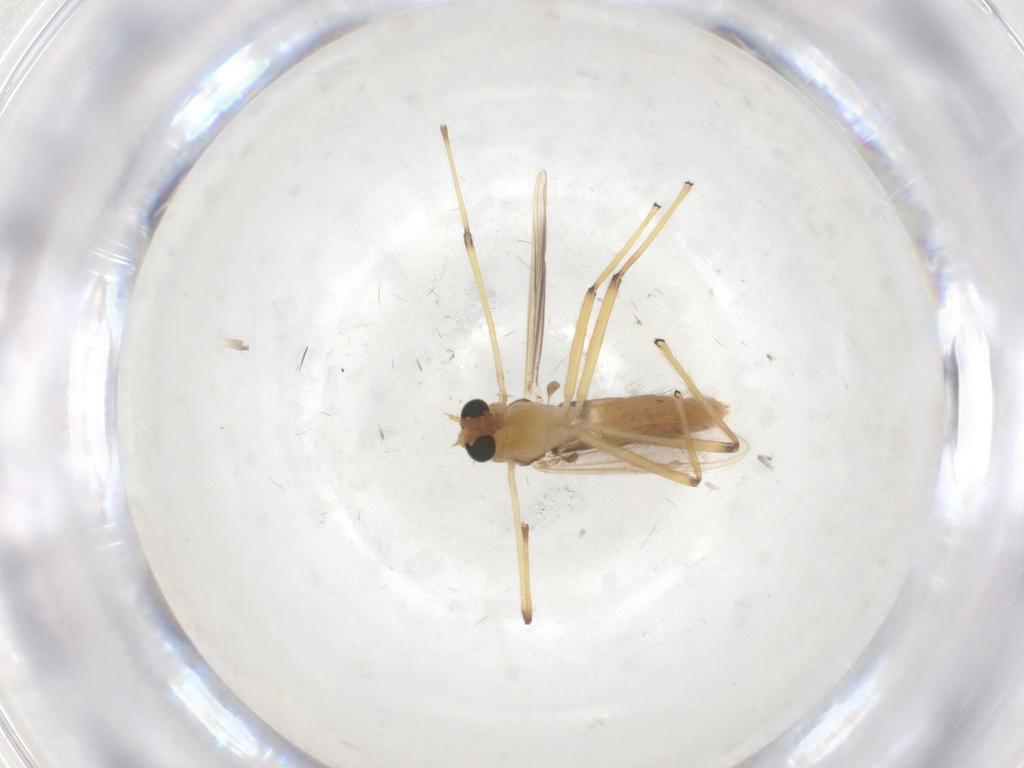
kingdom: Animalia
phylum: Arthropoda
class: Insecta
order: Diptera
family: Chironomidae
